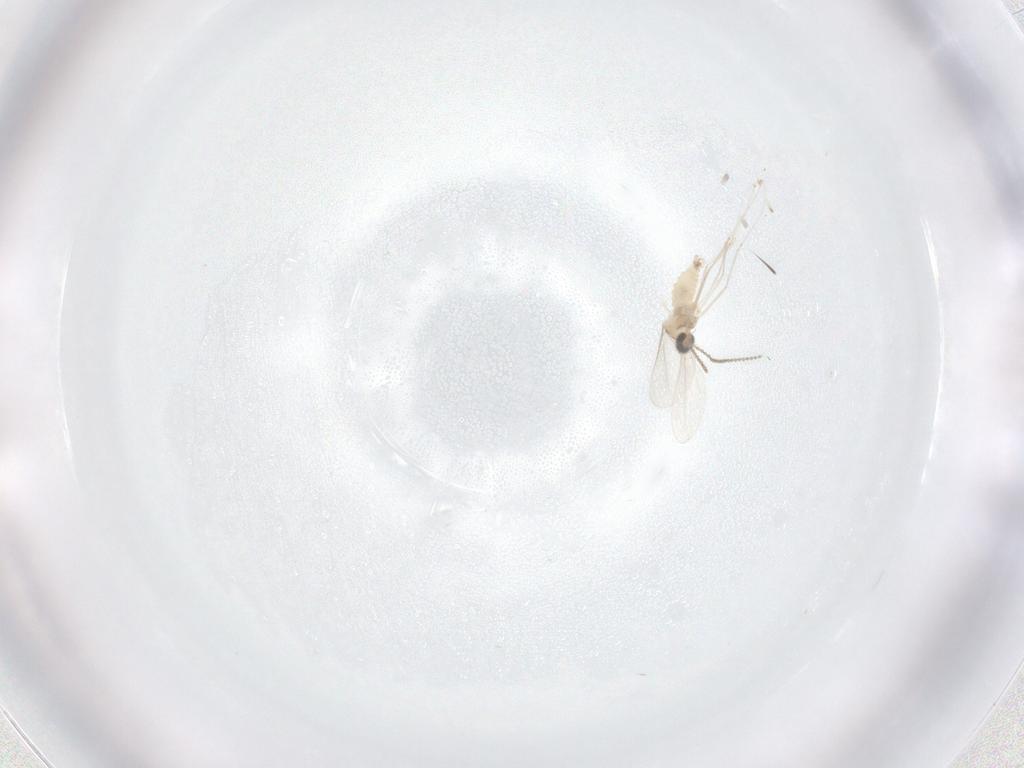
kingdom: Animalia
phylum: Arthropoda
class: Insecta
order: Diptera
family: Cecidomyiidae
